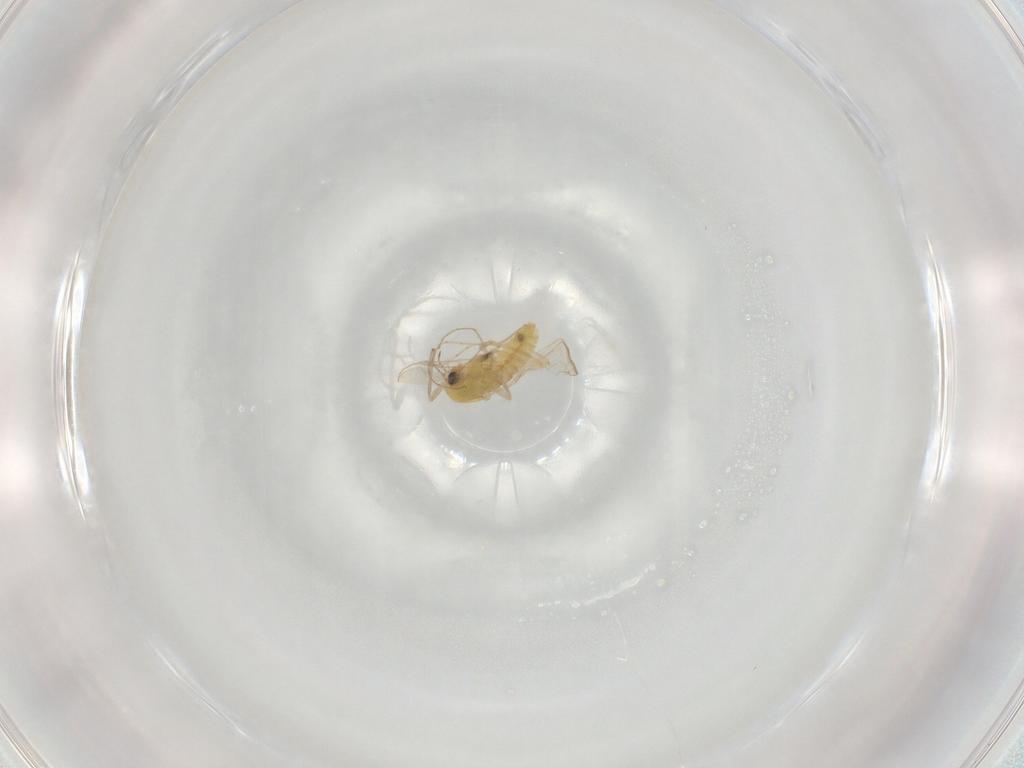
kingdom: Animalia
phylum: Arthropoda
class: Insecta
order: Diptera
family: Chironomidae
